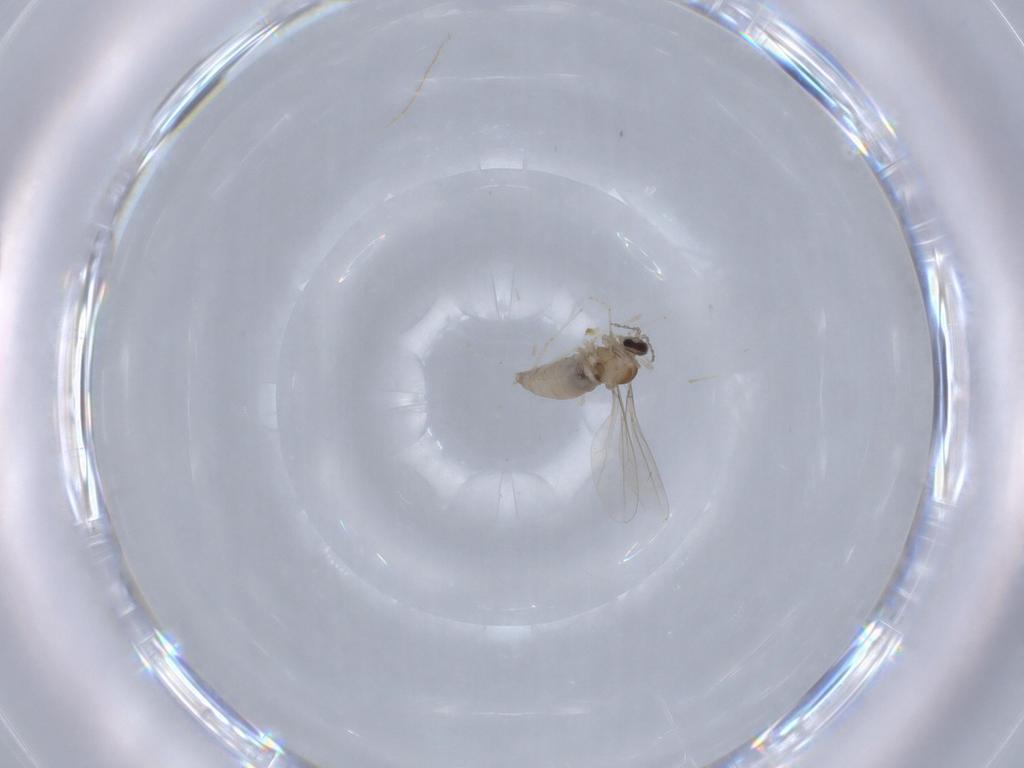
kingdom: Animalia
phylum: Arthropoda
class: Insecta
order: Diptera
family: Cecidomyiidae
